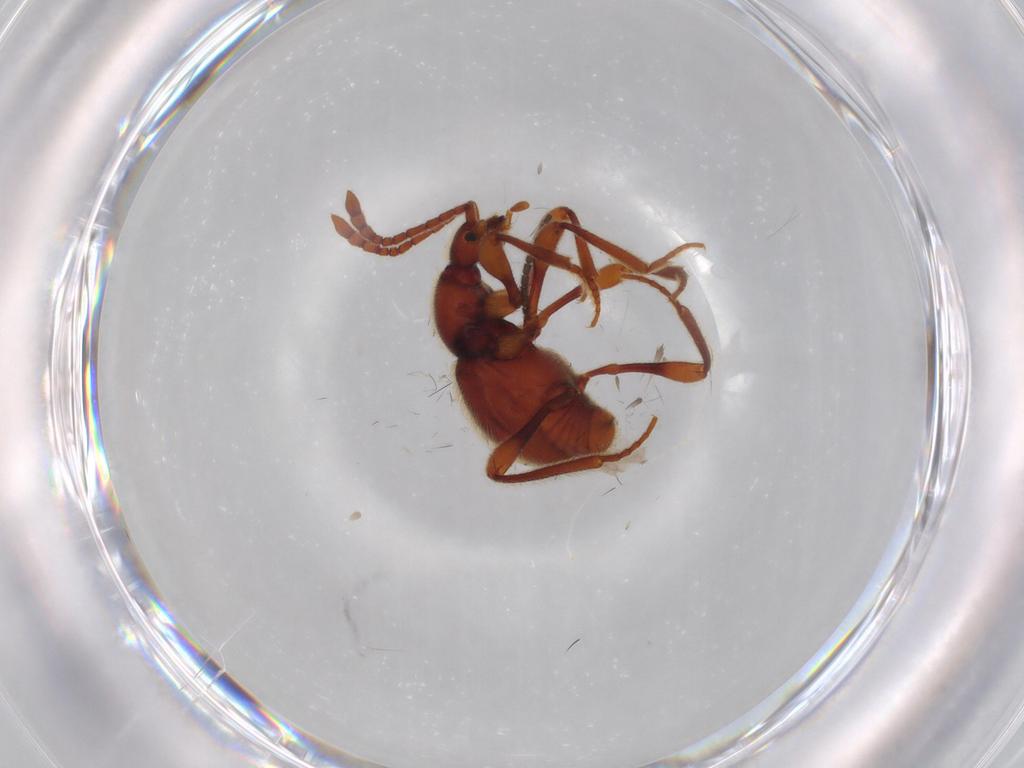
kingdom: Animalia
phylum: Arthropoda
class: Insecta
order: Coleoptera
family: Staphylinidae
